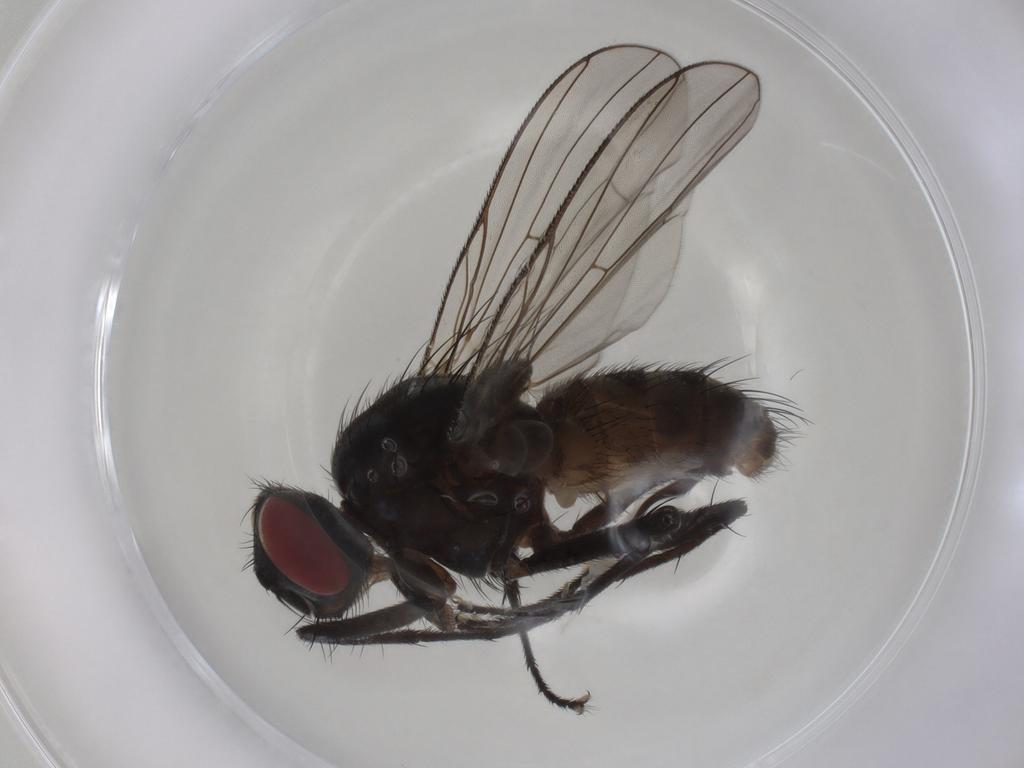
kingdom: Animalia
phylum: Arthropoda
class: Insecta
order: Diptera
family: Muscidae
